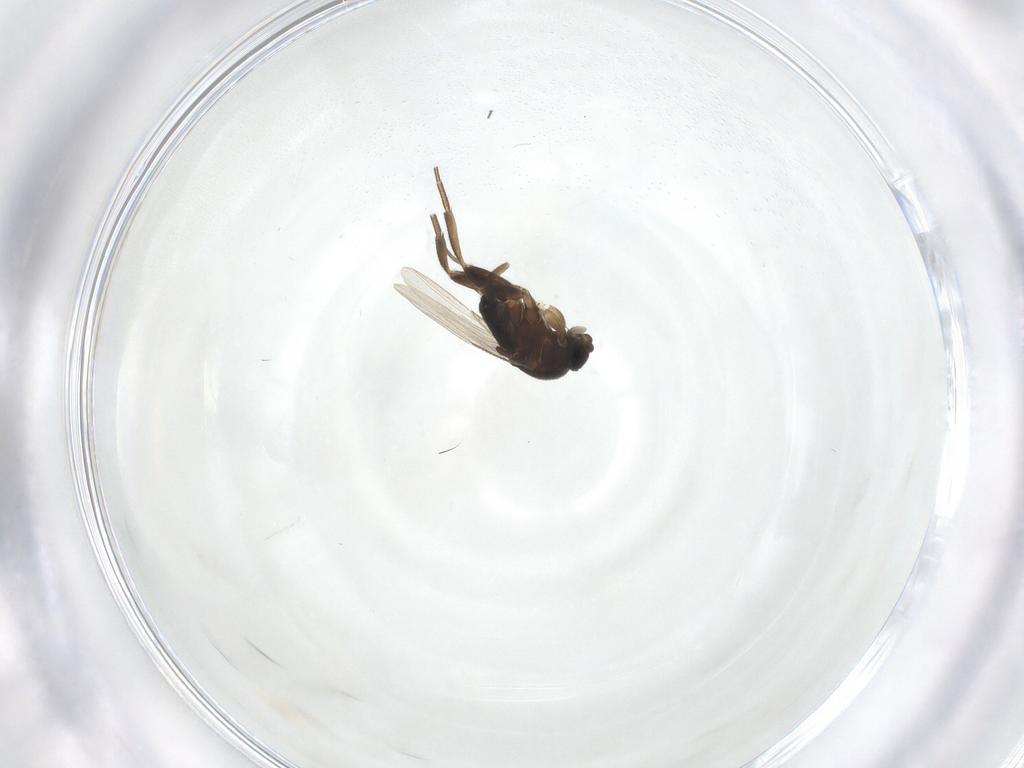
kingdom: Animalia
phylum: Arthropoda
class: Insecta
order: Diptera
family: Phoridae
